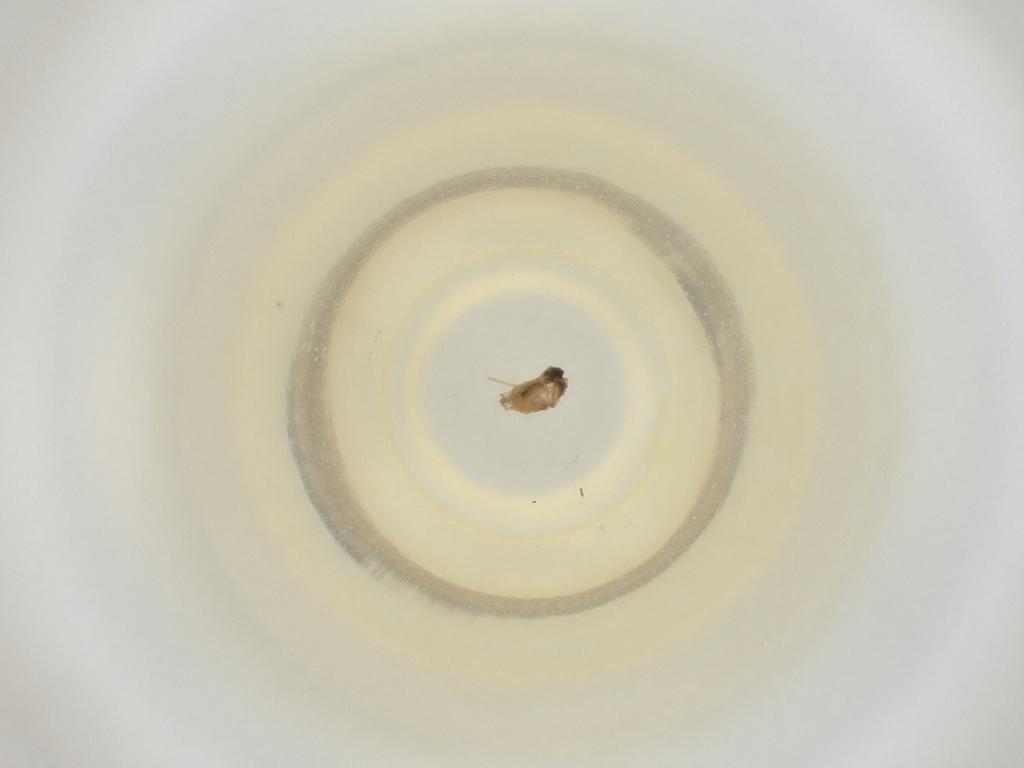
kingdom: Animalia
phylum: Arthropoda
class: Insecta
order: Diptera
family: Cecidomyiidae
